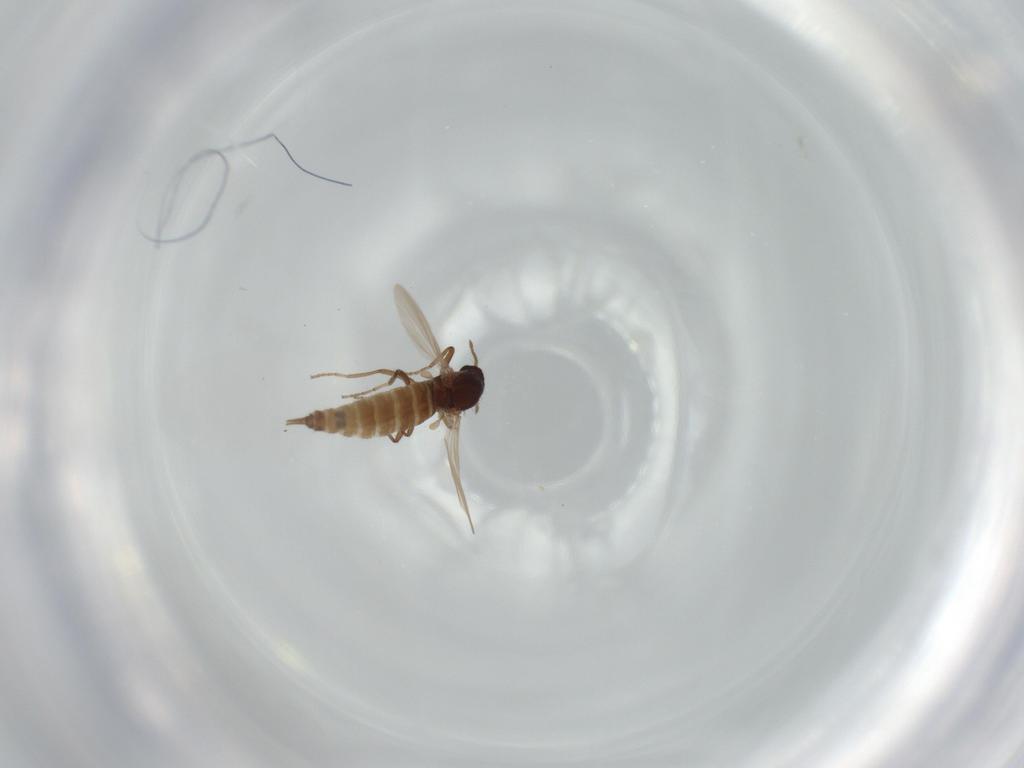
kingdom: Animalia
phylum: Arthropoda
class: Insecta
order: Diptera
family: Ceratopogonidae
